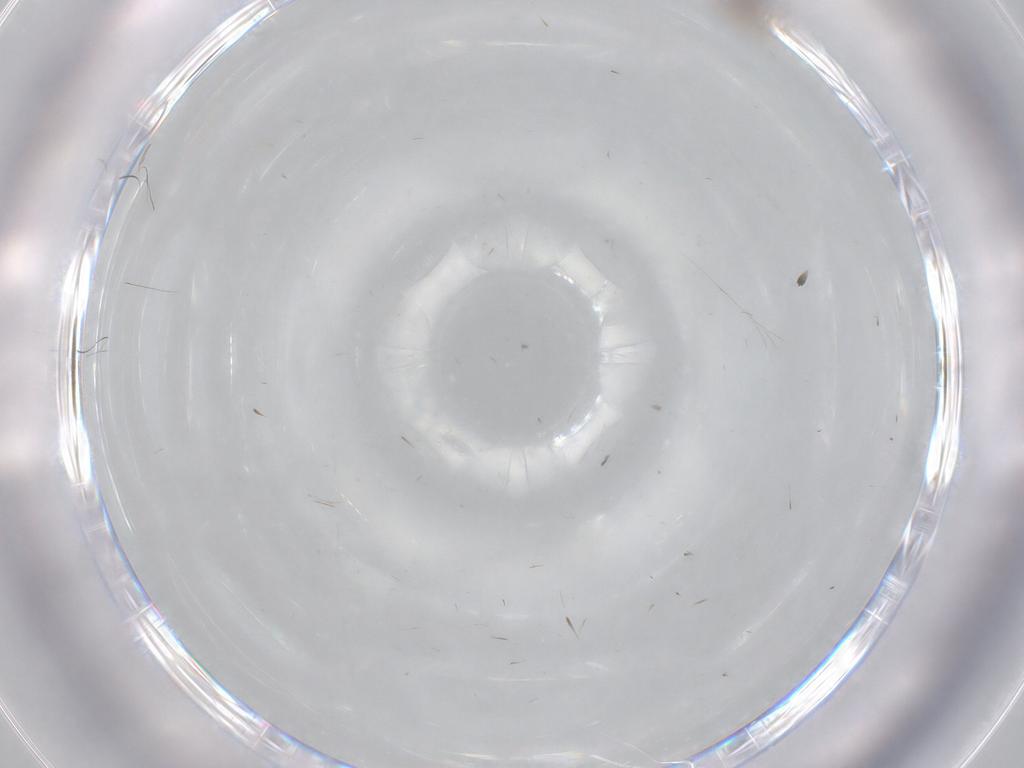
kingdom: Animalia
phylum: Arthropoda
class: Insecta
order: Diptera
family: Cecidomyiidae
